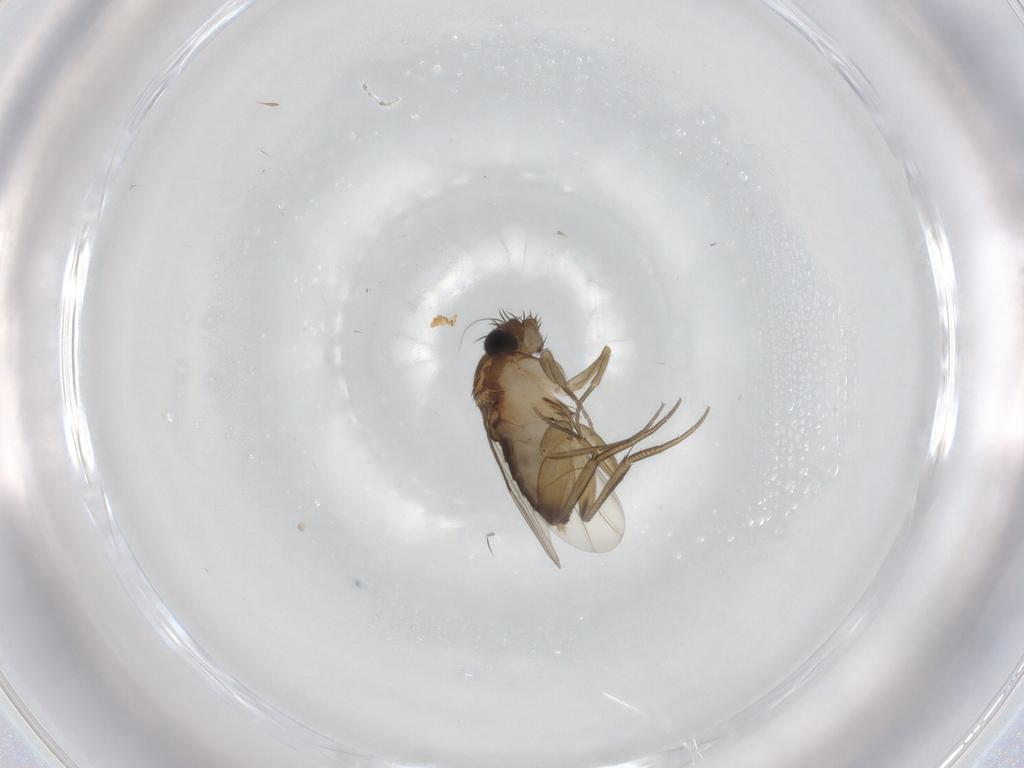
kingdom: Animalia
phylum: Arthropoda
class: Insecta
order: Diptera
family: Phoridae
